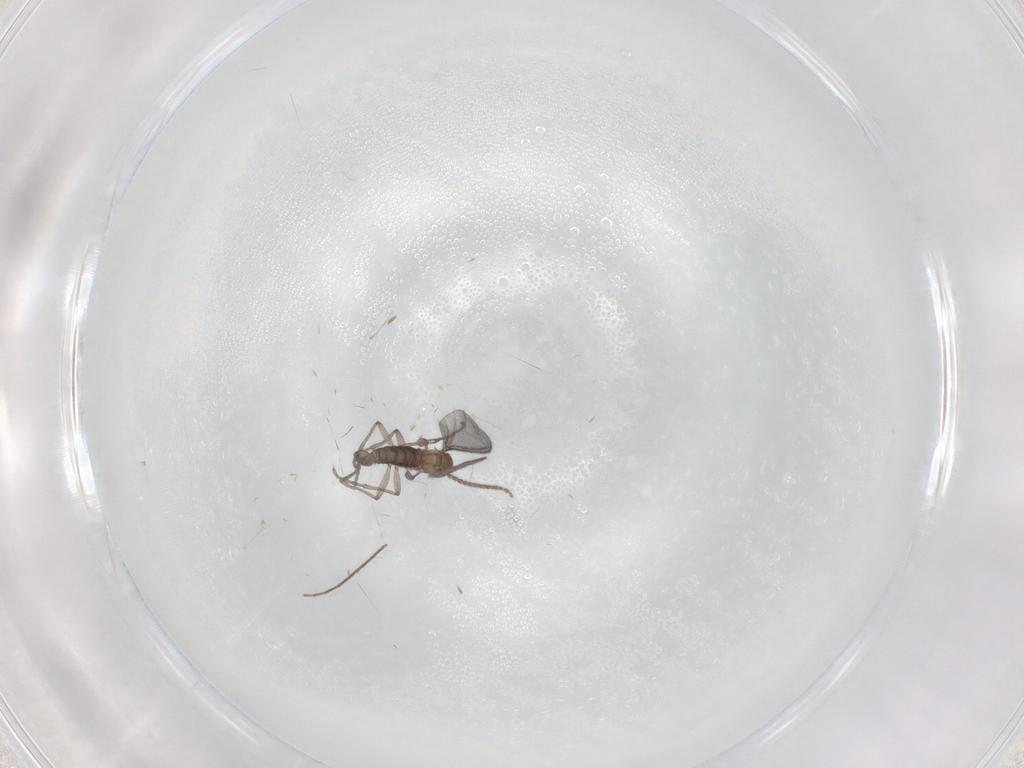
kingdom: Animalia
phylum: Arthropoda
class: Insecta
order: Diptera
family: Sciaridae
